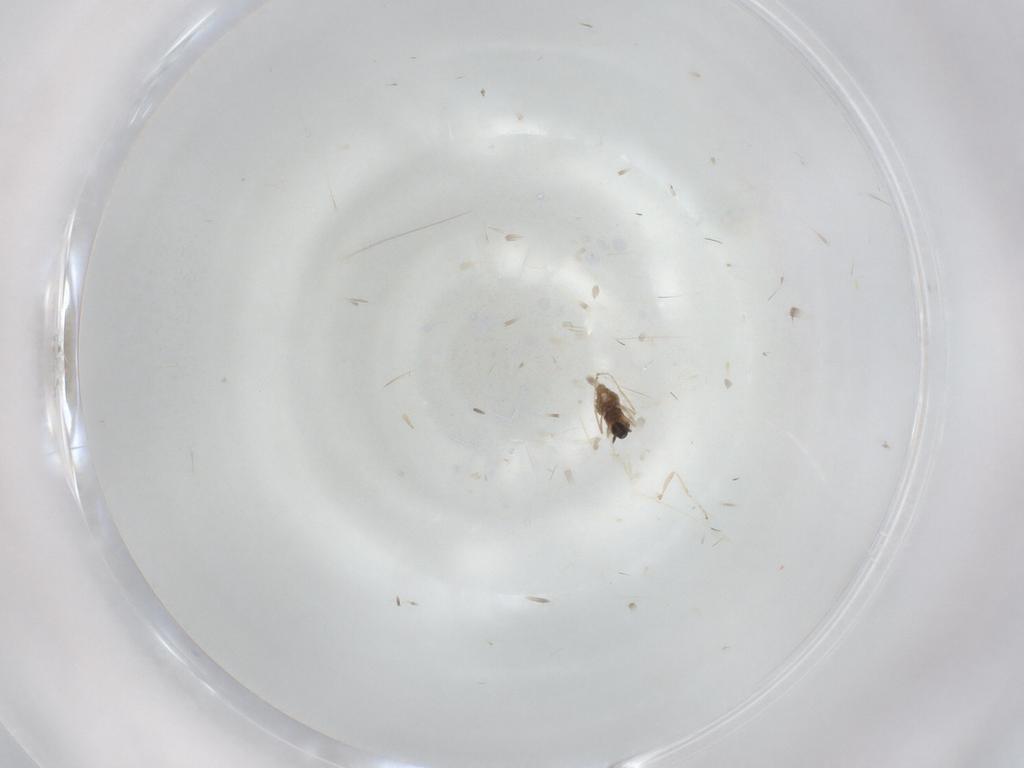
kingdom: Animalia
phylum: Arthropoda
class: Insecta
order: Diptera
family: Cecidomyiidae
